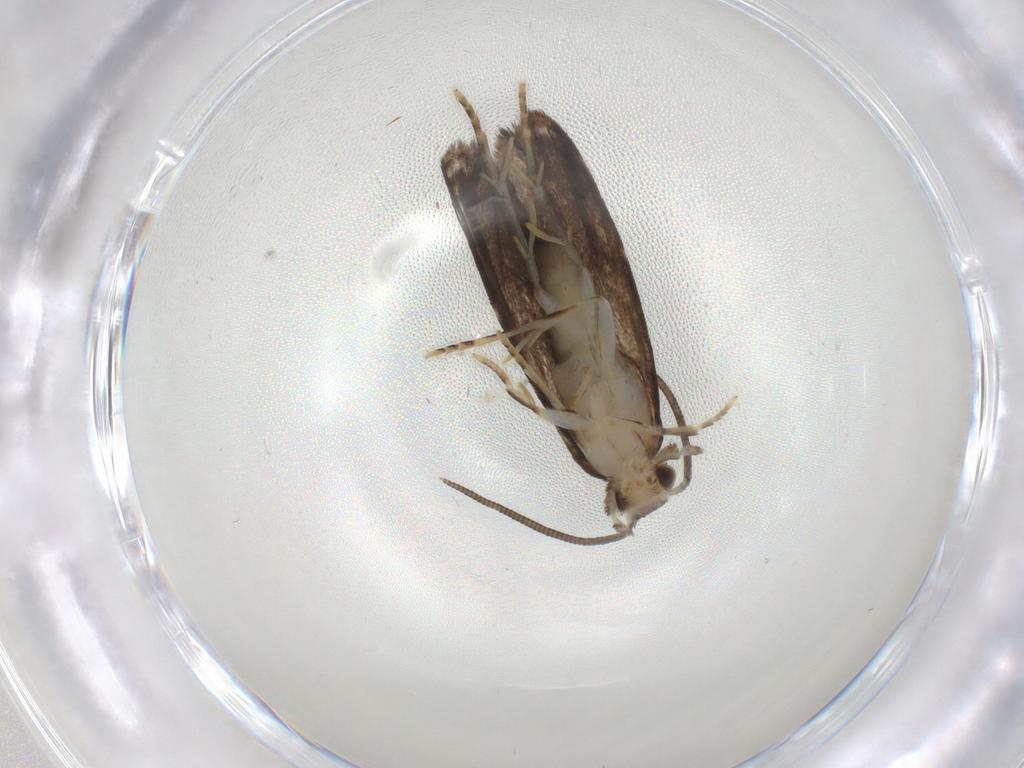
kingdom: Animalia
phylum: Arthropoda
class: Insecta
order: Lepidoptera
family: Dryadaulidae
